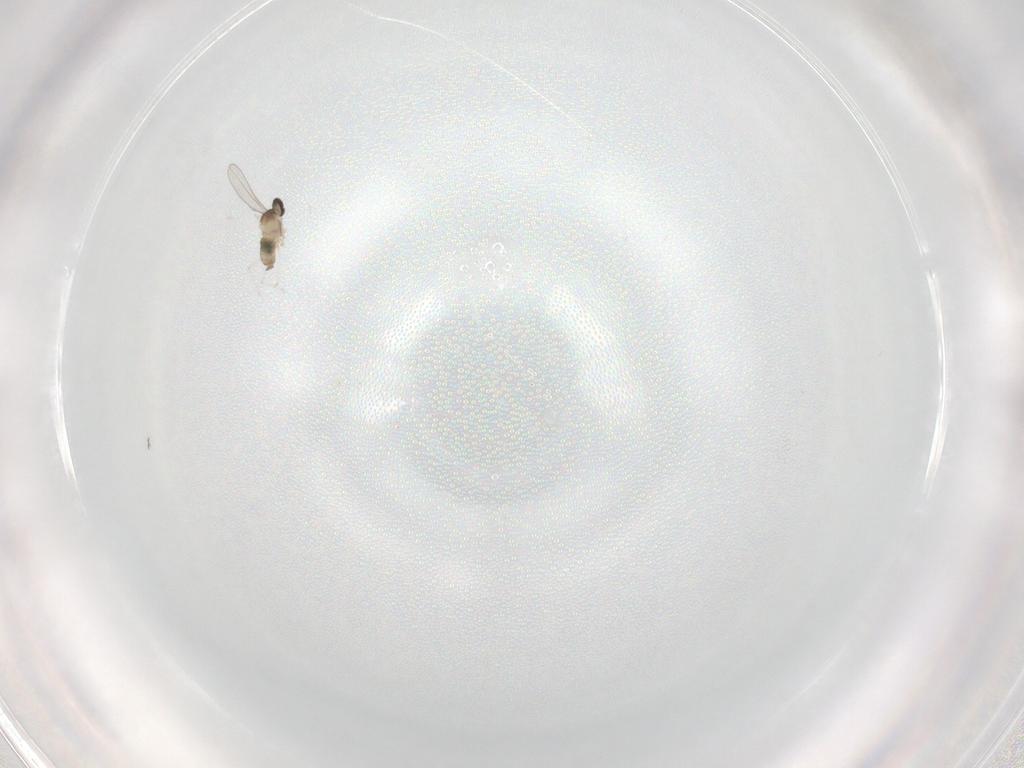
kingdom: Animalia
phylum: Arthropoda
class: Insecta
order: Diptera
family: Cecidomyiidae
